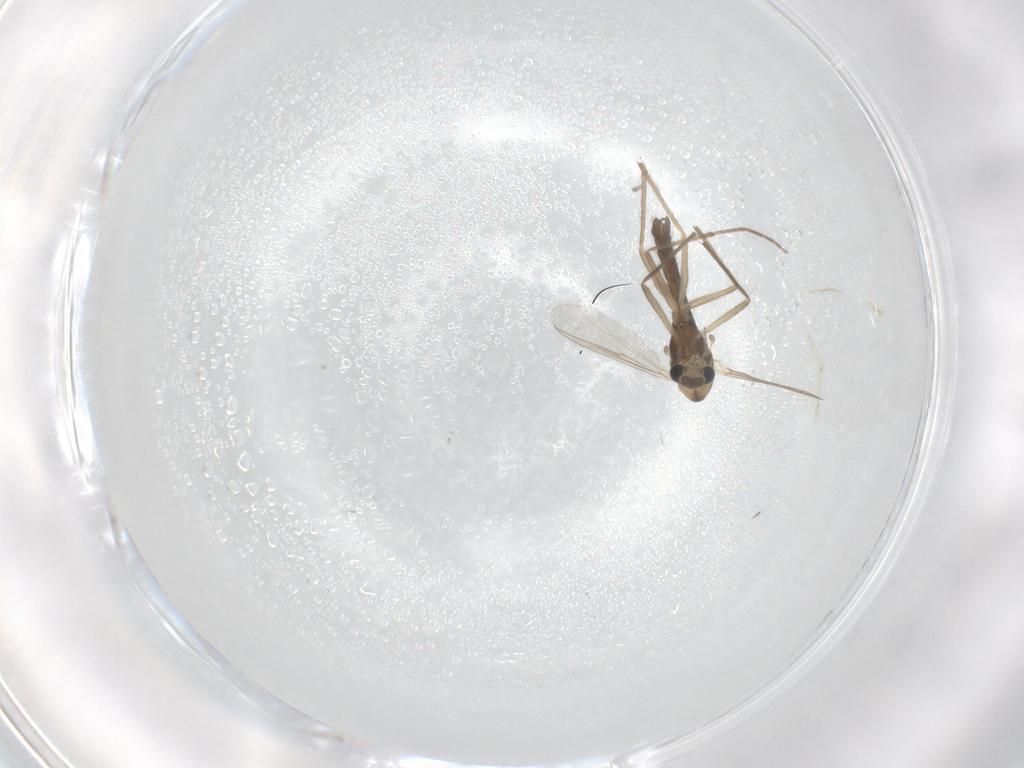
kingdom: Animalia
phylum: Arthropoda
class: Insecta
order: Diptera
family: Chironomidae
